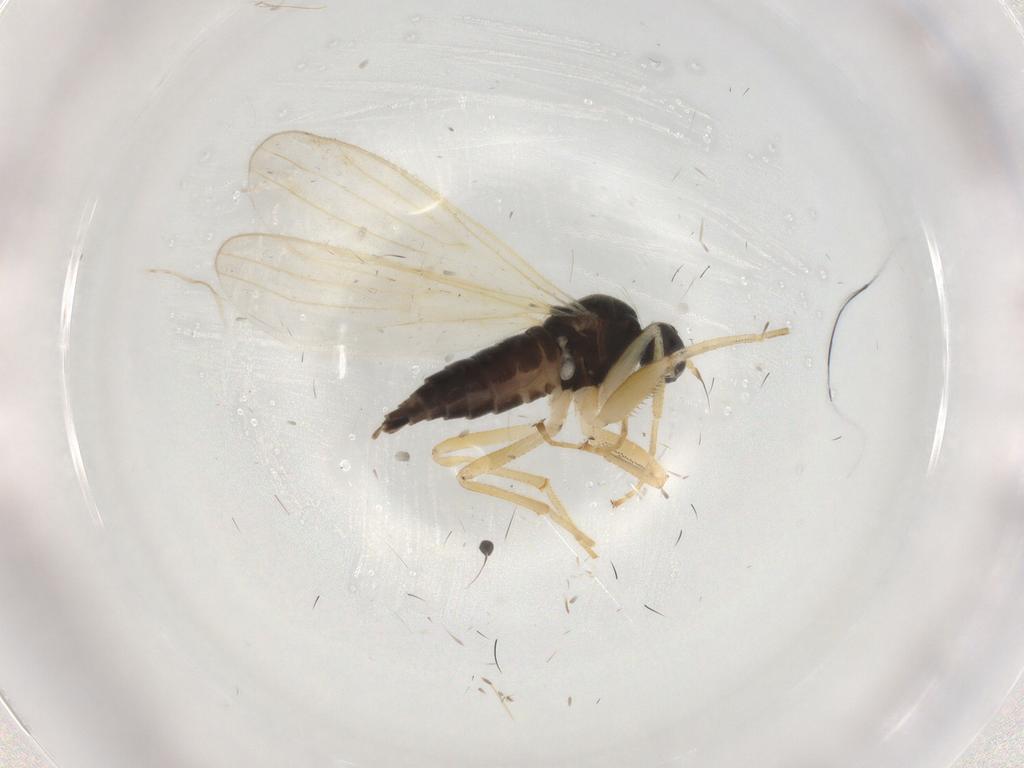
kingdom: Animalia
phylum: Arthropoda
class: Insecta
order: Diptera
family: Hybotidae
